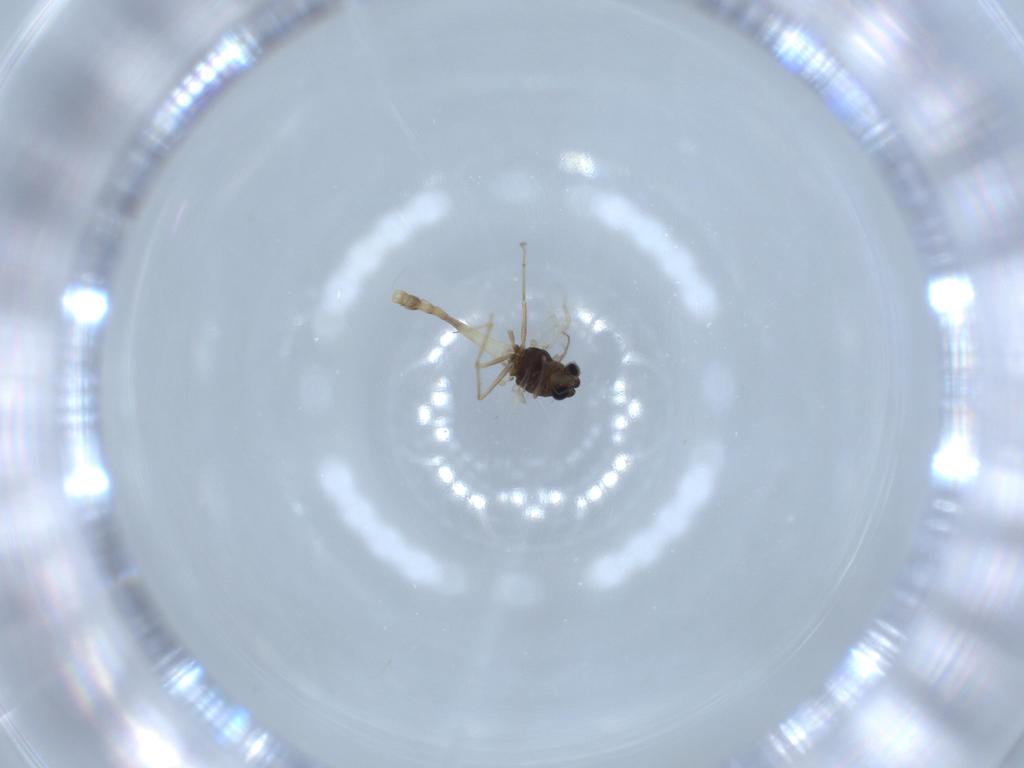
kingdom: Animalia
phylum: Arthropoda
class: Insecta
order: Diptera
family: Chironomidae
